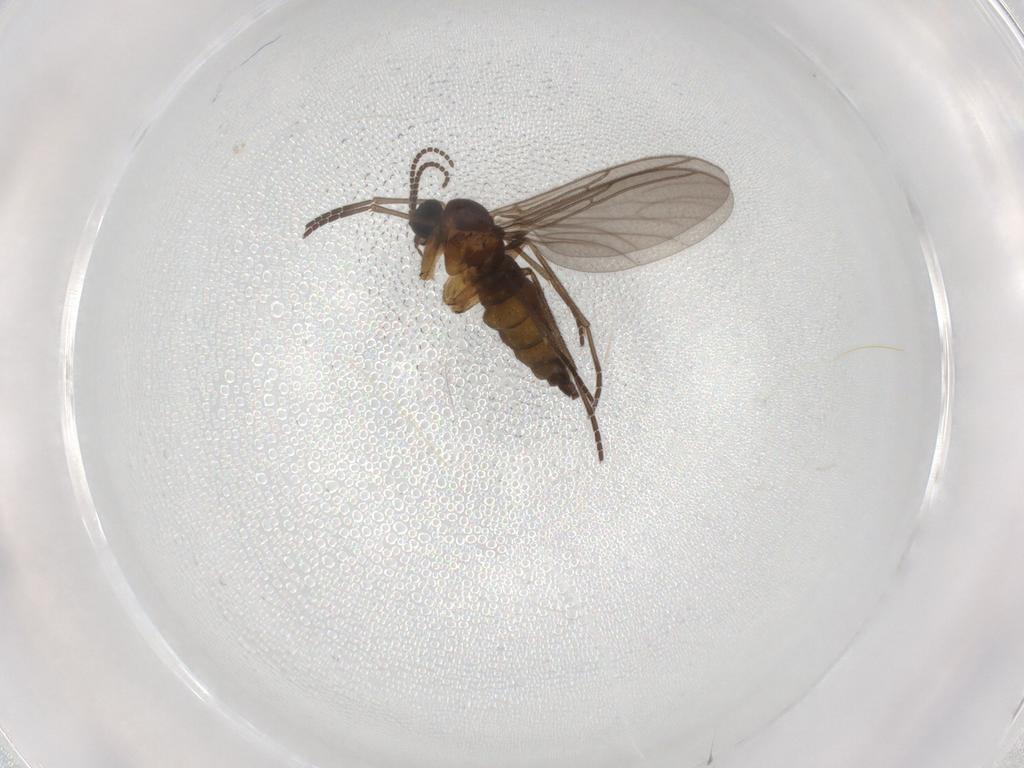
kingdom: Animalia
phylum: Arthropoda
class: Insecta
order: Diptera
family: Sciaridae
